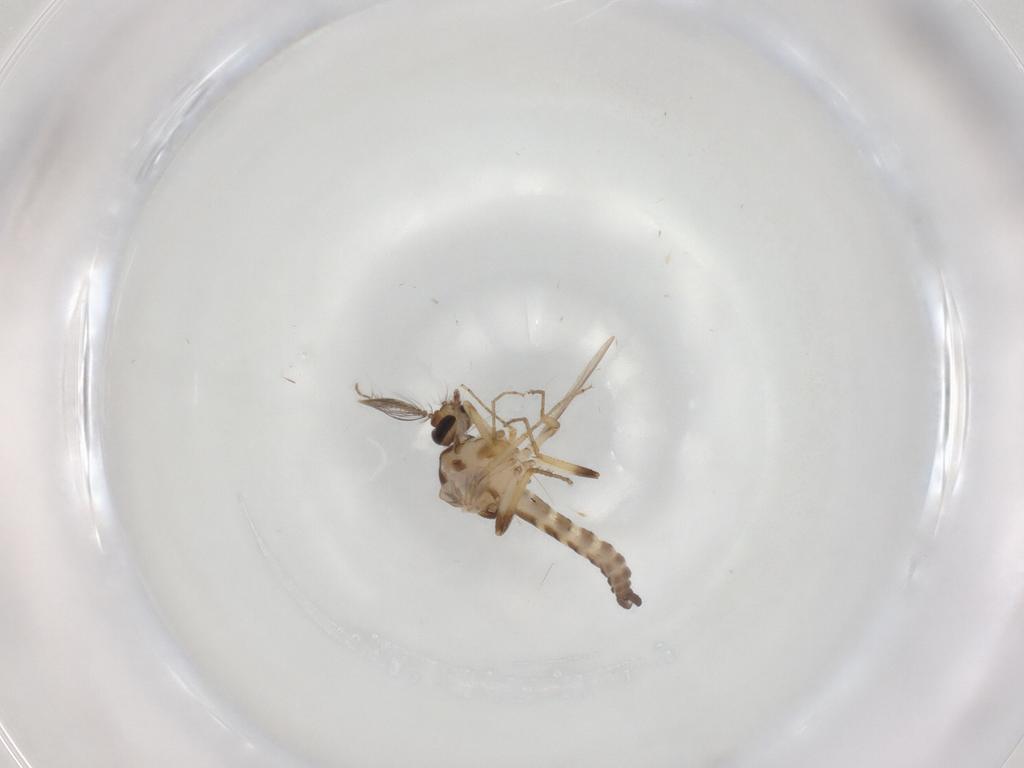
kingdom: Animalia
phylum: Arthropoda
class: Insecta
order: Diptera
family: Ceratopogonidae
